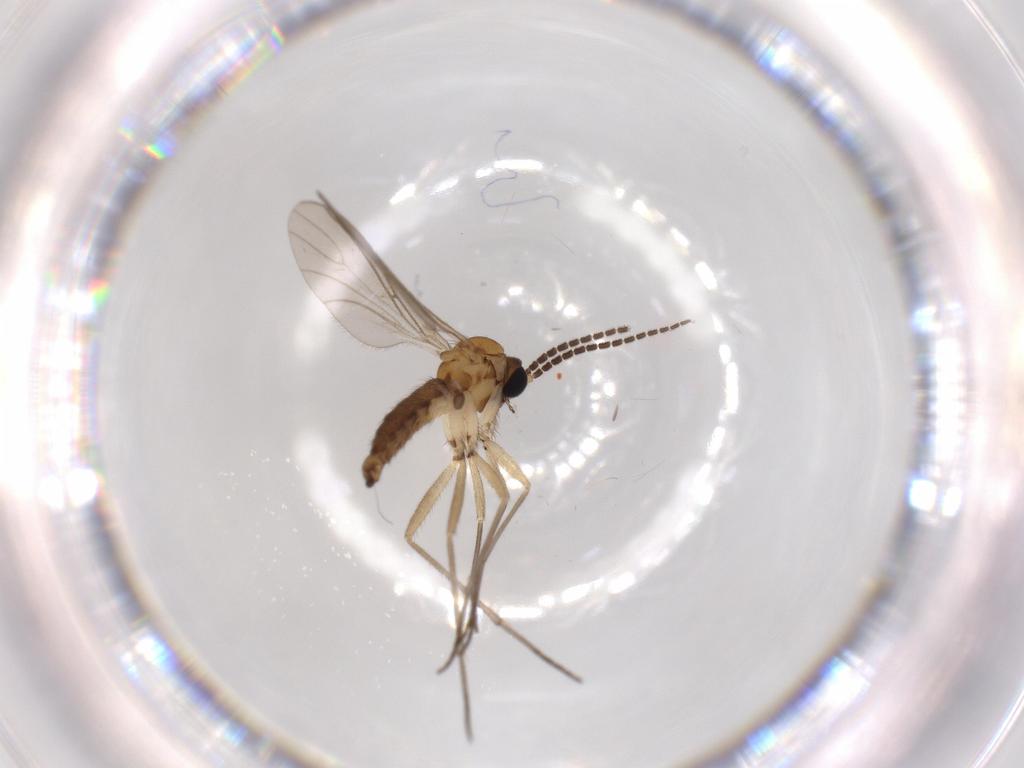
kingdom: Animalia
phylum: Arthropoda
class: Insecta
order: Diptera
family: Sciaridae
